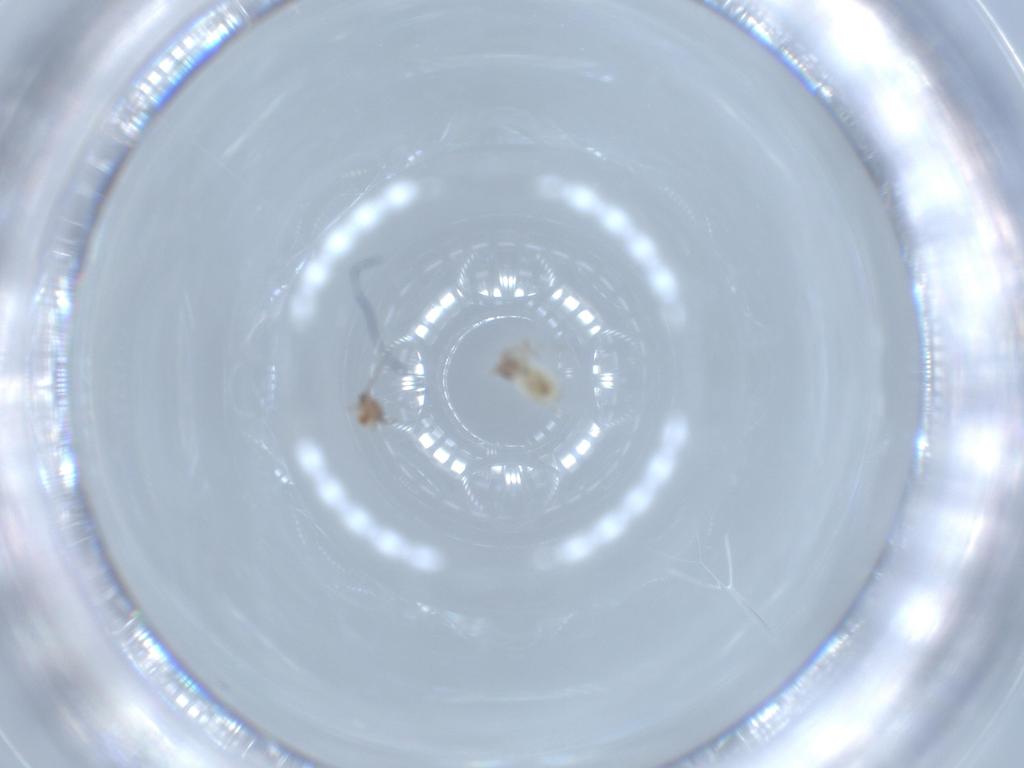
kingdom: Animalia
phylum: Arthropoda
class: Insecta
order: Psocodea
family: Lepidopsocidae
